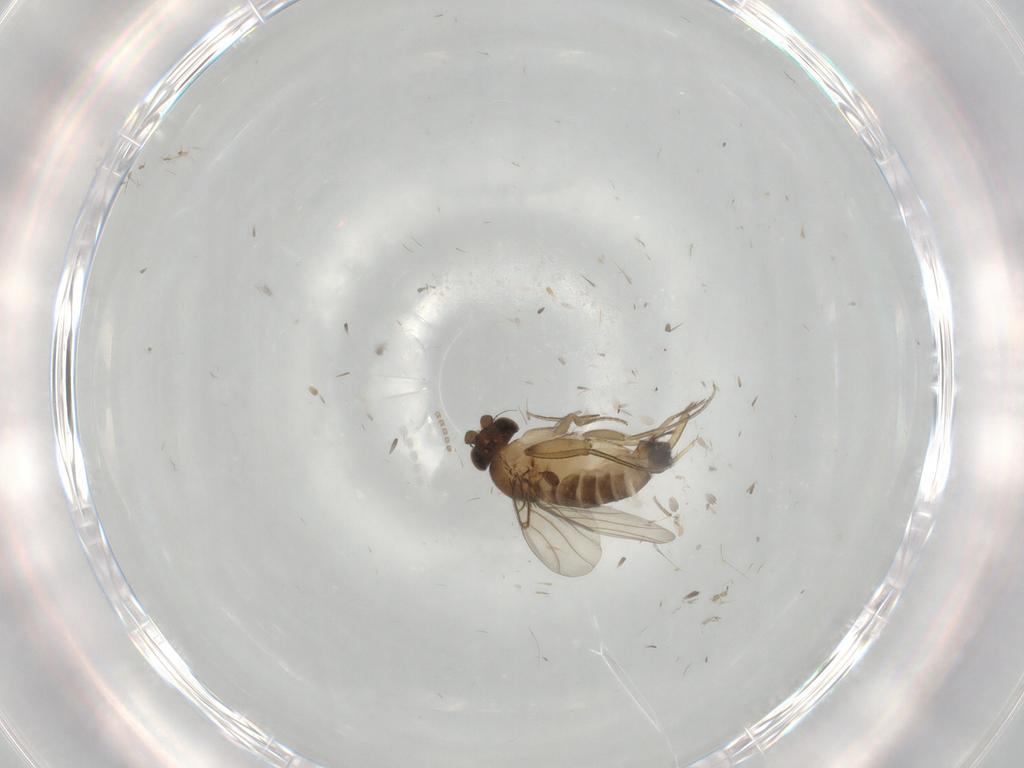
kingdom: Animalia
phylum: Arthropoda
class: Insecta
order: Diptera
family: Phoridae
